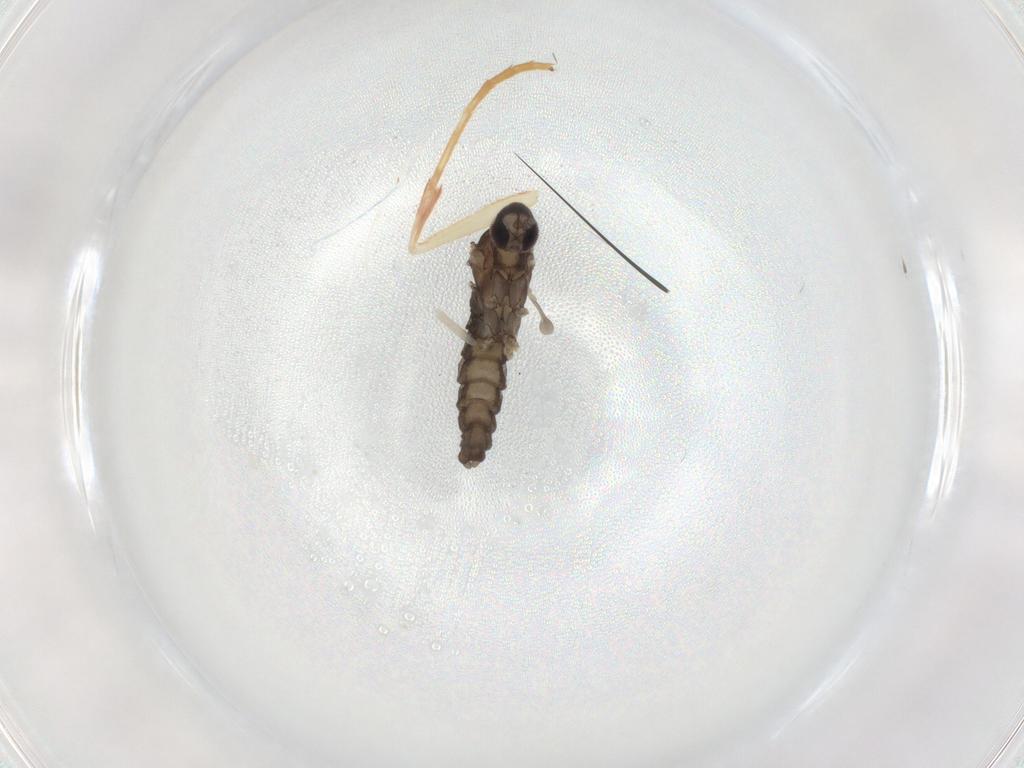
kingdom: Animalia
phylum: Arthropoda
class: Insecta
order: Diptera
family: Phoridae
